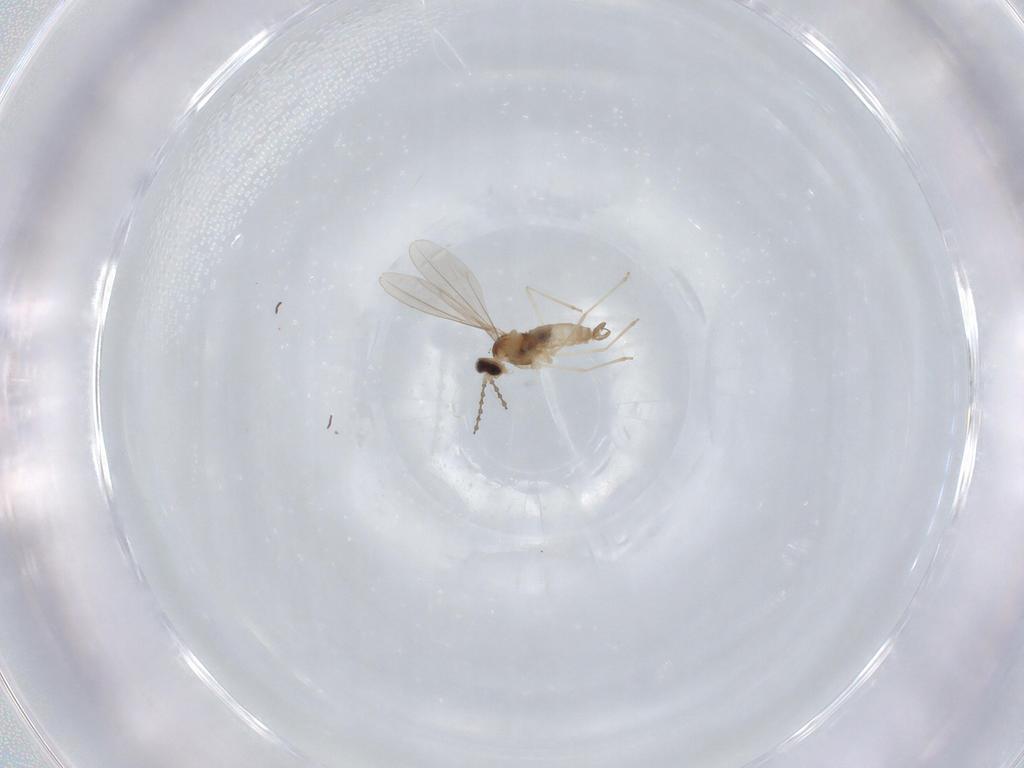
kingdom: Animalia
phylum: Arthropoda
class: Insecta
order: Diptera
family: Cecidomyiidae
